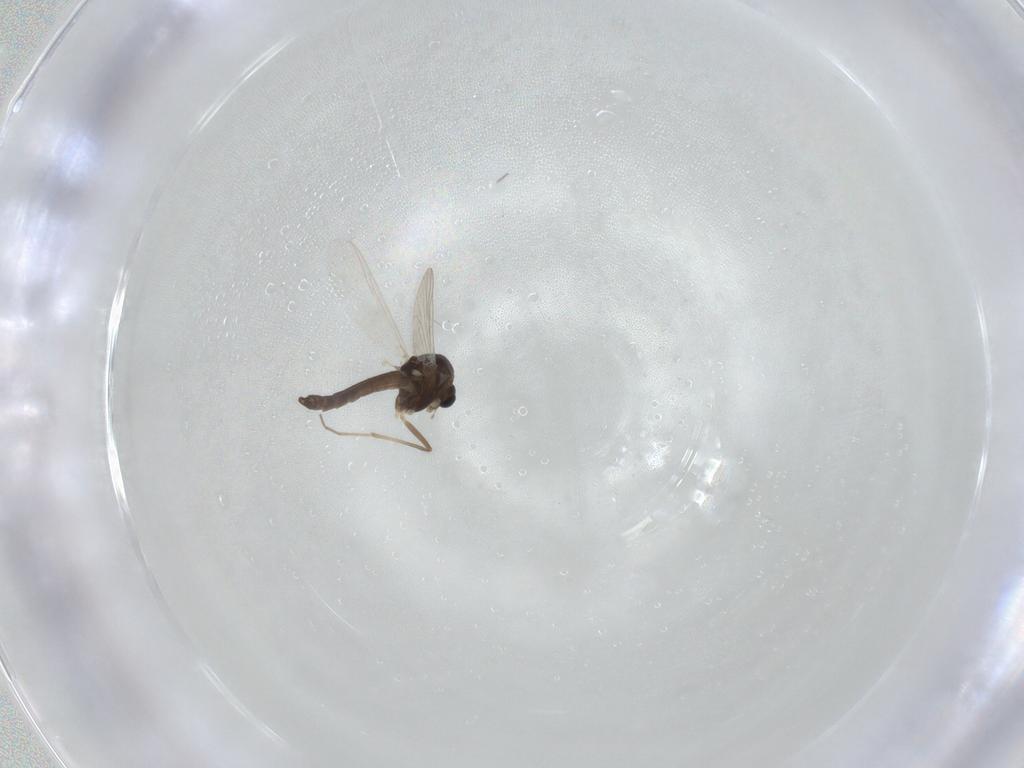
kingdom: Animalia
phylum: Arthropoda
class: Insecta
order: Diptera
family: Chironomidae
